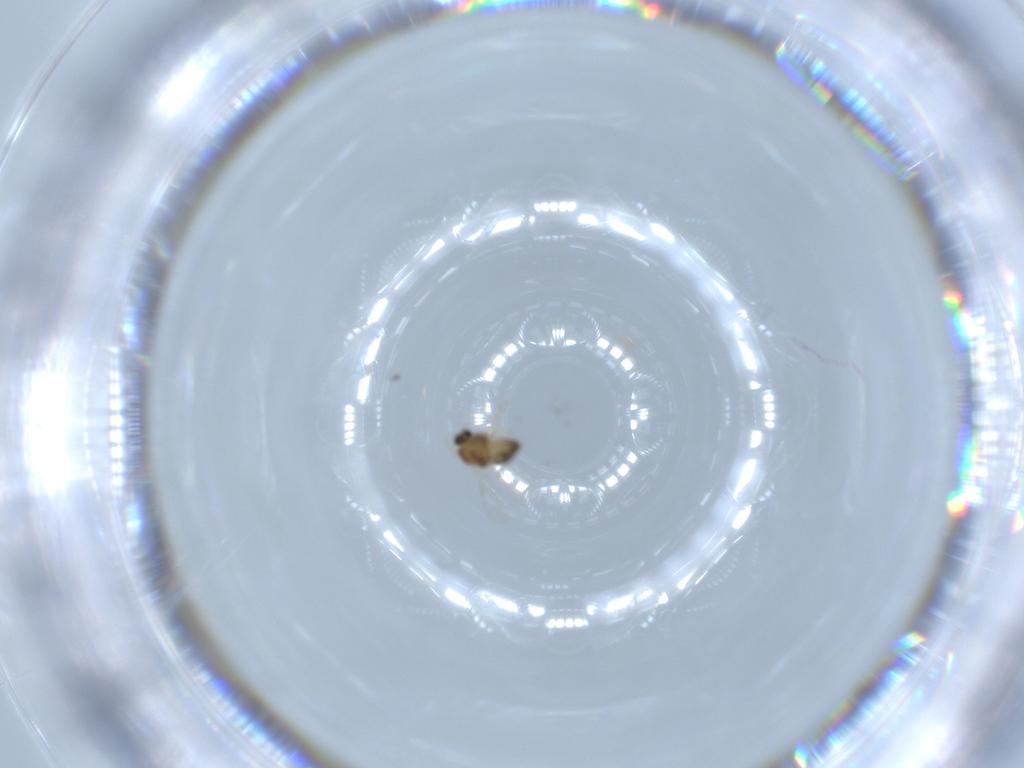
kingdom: Animalia
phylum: Arthropoda
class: Insecta
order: Diptera
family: Chironomidae
